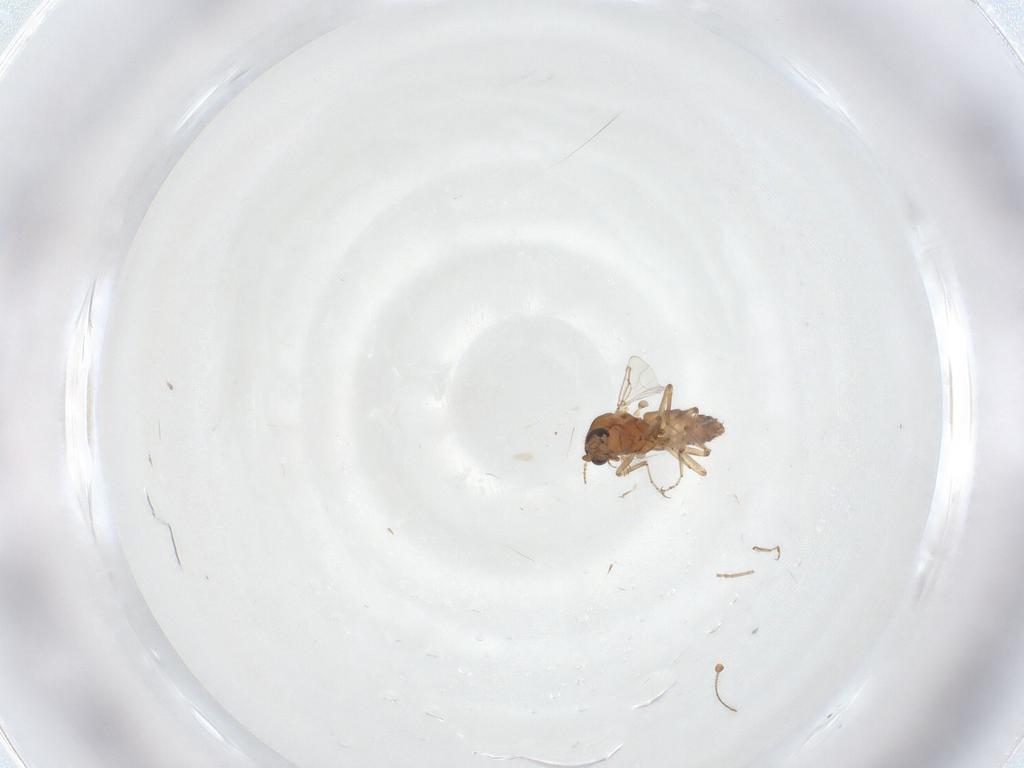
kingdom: Animalia
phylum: Arthropoda
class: Insecta
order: Diptera
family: Ceratopogonidae
